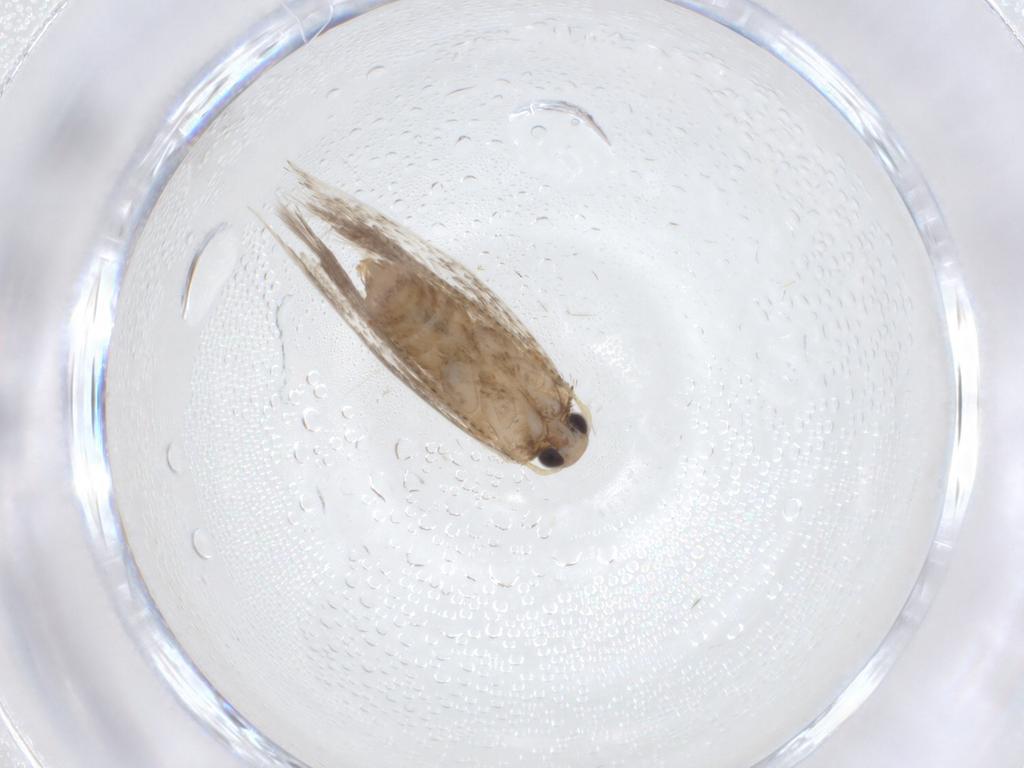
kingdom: Animalia
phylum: Arthropoda
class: Insecta
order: Lepidoptera
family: Elachistidae
